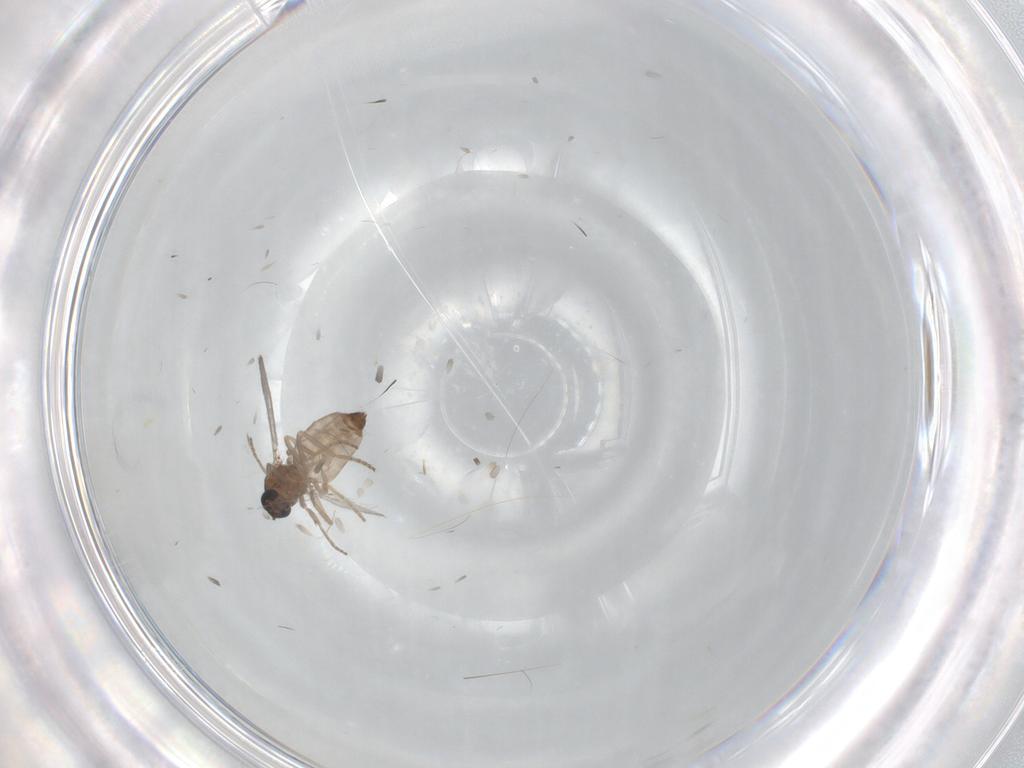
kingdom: Animalia
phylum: Arthropoda
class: Insecta
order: Diptera
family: Ceratopogonidae
